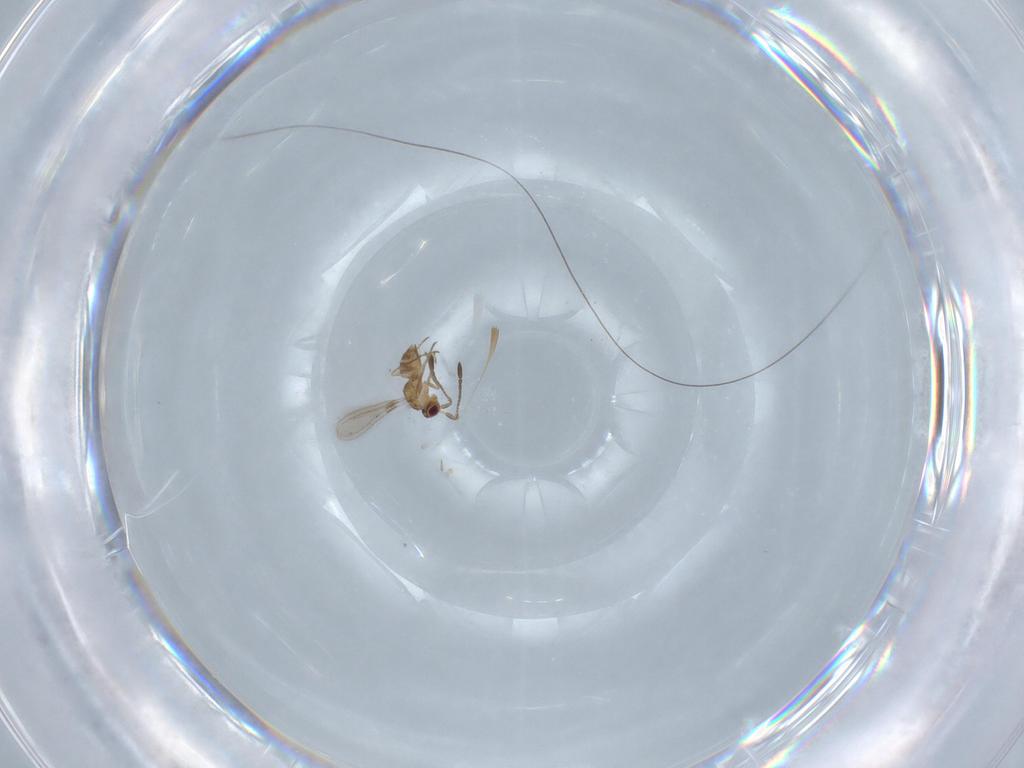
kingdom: Animalia
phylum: Arthropoda
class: Insecta
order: Hymenoptera
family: Mymaridae
